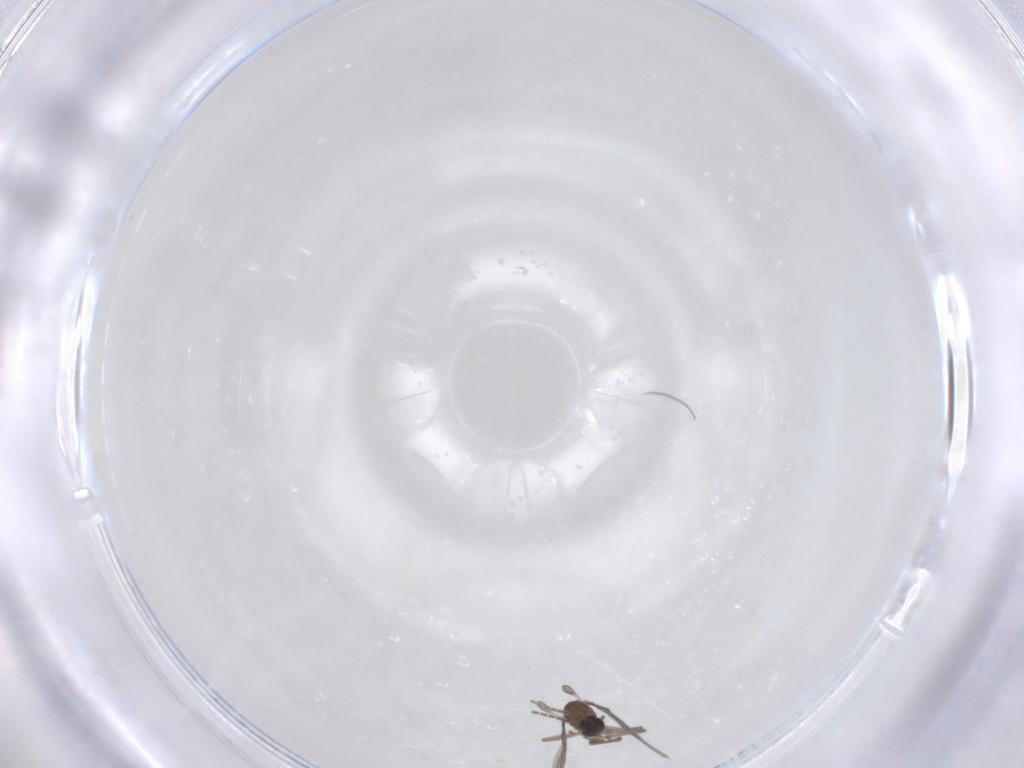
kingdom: Animalia
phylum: Arthropoda
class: Insecta
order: Diptera
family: Sciaridae
